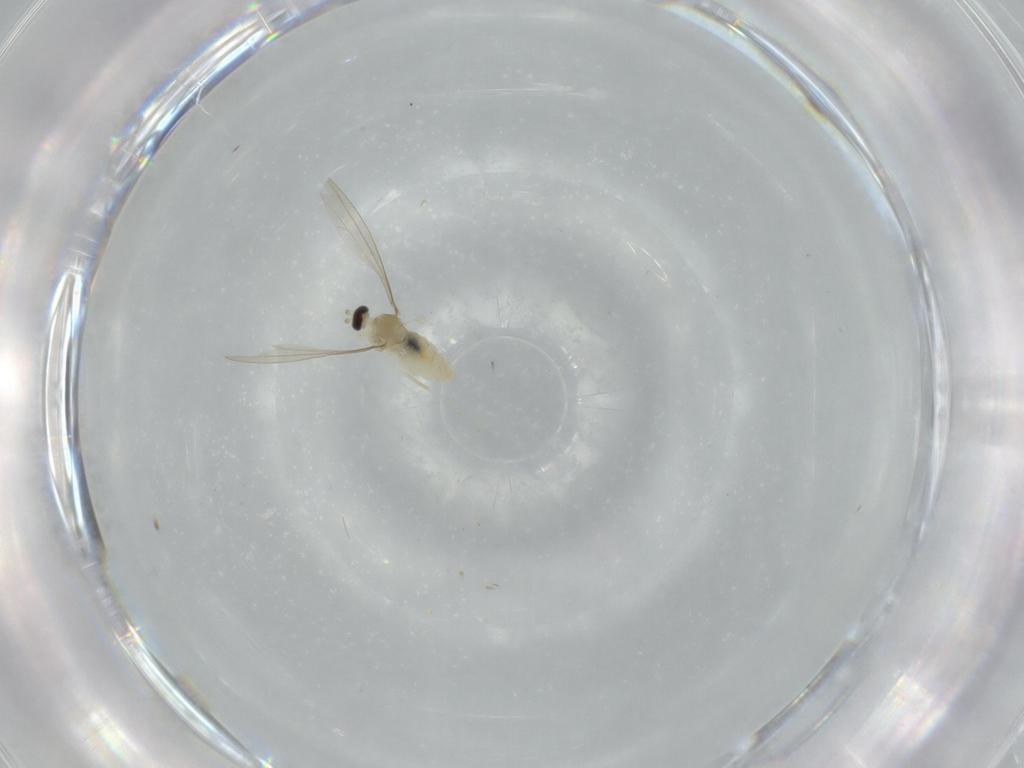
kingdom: Animalia
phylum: Arthropoda
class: Insecta
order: Diptera
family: Cecidomyiidae
